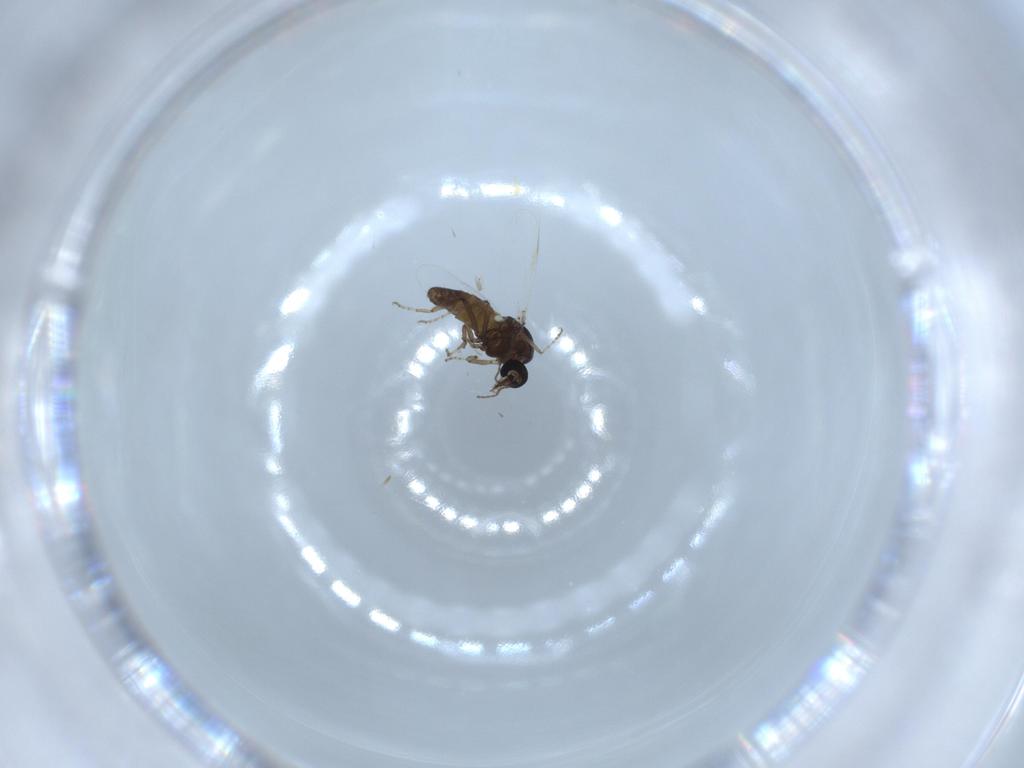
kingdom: Animalia
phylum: Arthropoda
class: Insecta
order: Diptera
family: Ceratopogonidae
